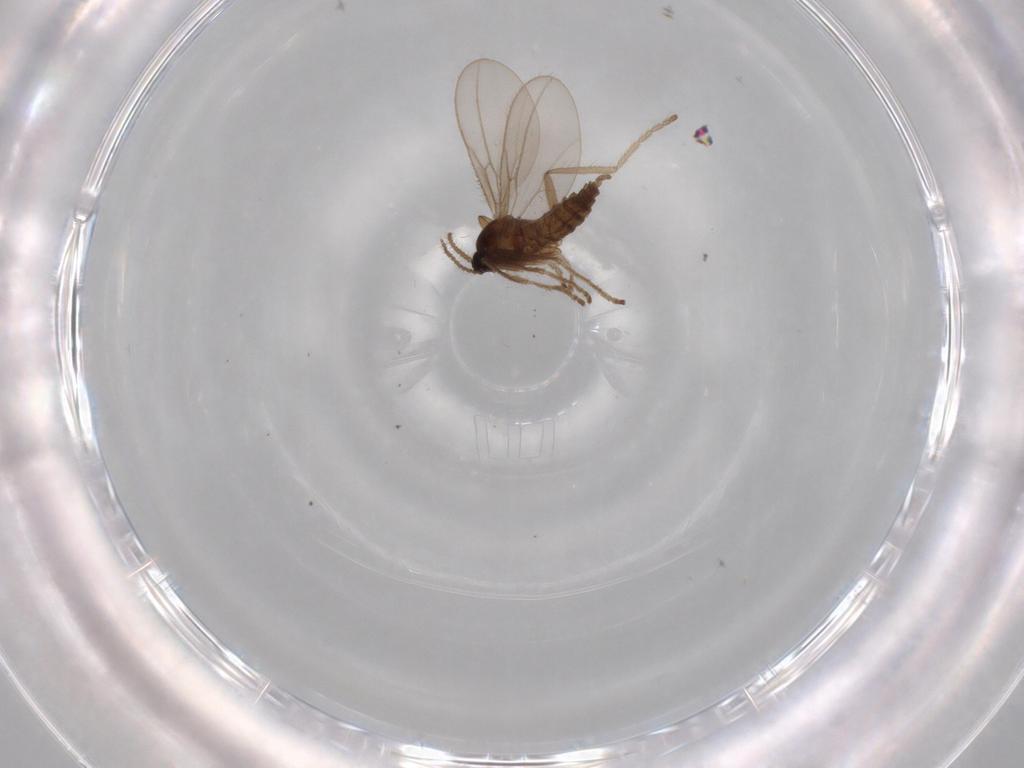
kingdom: Animalia
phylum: Arthropoda
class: Insecta
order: Diptera
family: Cecidomyiidae
